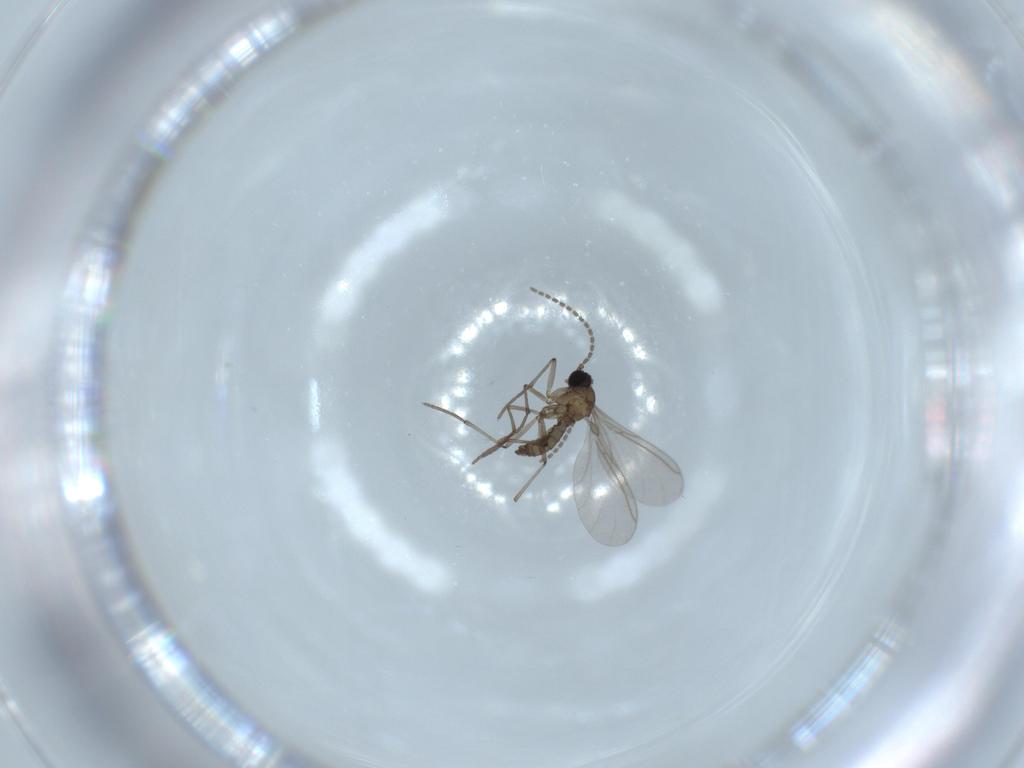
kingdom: Animalia
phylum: Arthropoda
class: Insecta
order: Diptera
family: Sciaridae
